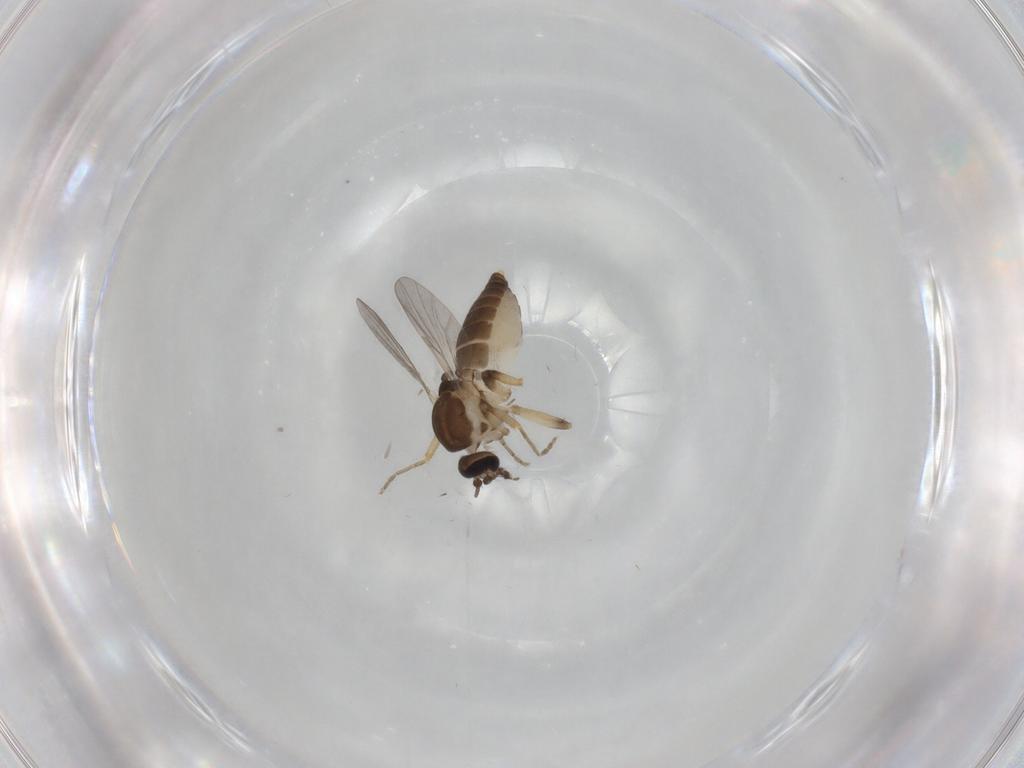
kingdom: Animalia
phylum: Arthropoda
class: Insecta
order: Diptera
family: Ceratopogonidae
